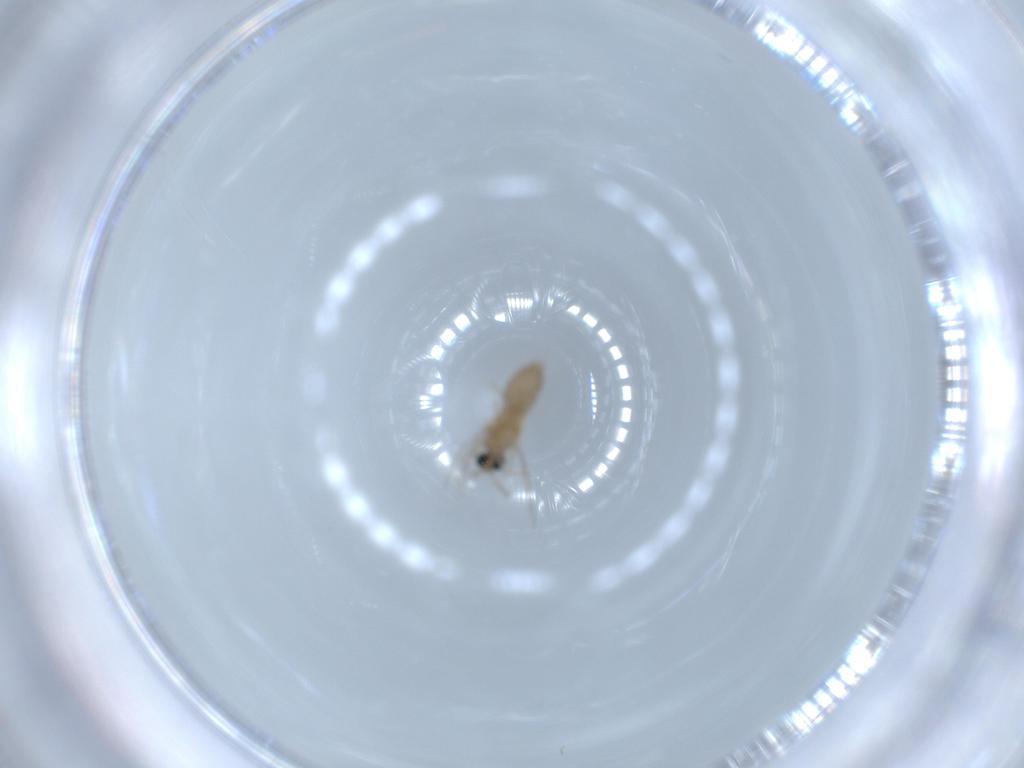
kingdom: Animalia
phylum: Arthropoda
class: Insecta
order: Diptera
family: Cecidomyiidae
